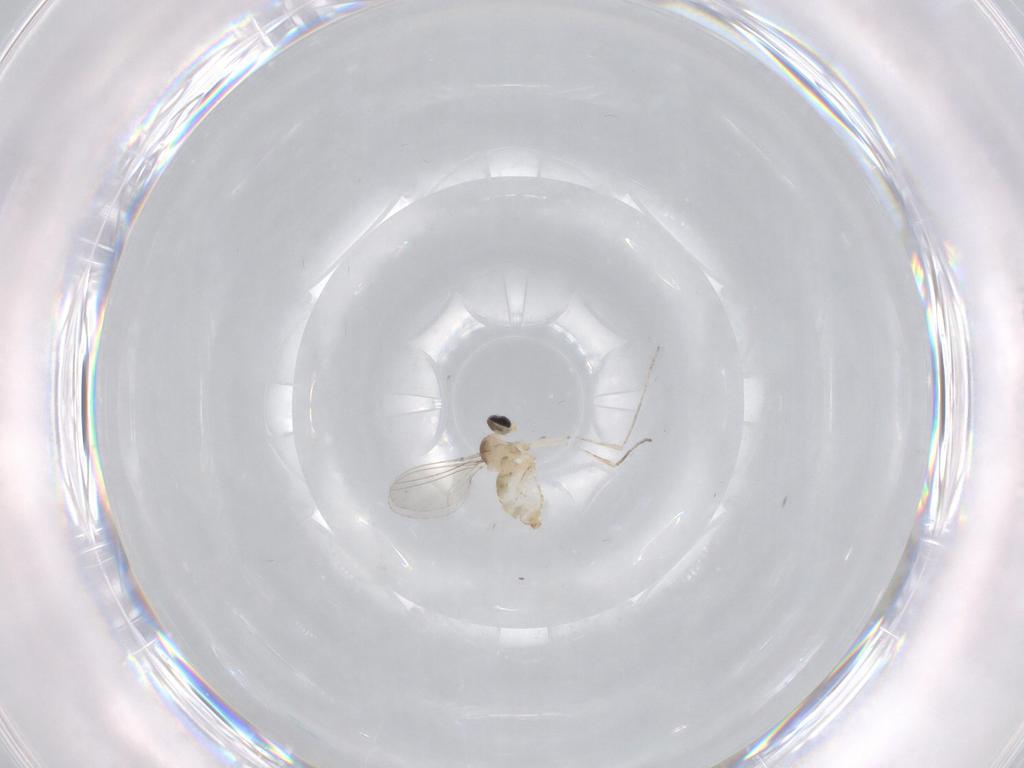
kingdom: Animalia
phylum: Arthropoda
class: Insecta
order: Diptera
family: Cecidomyiidae
